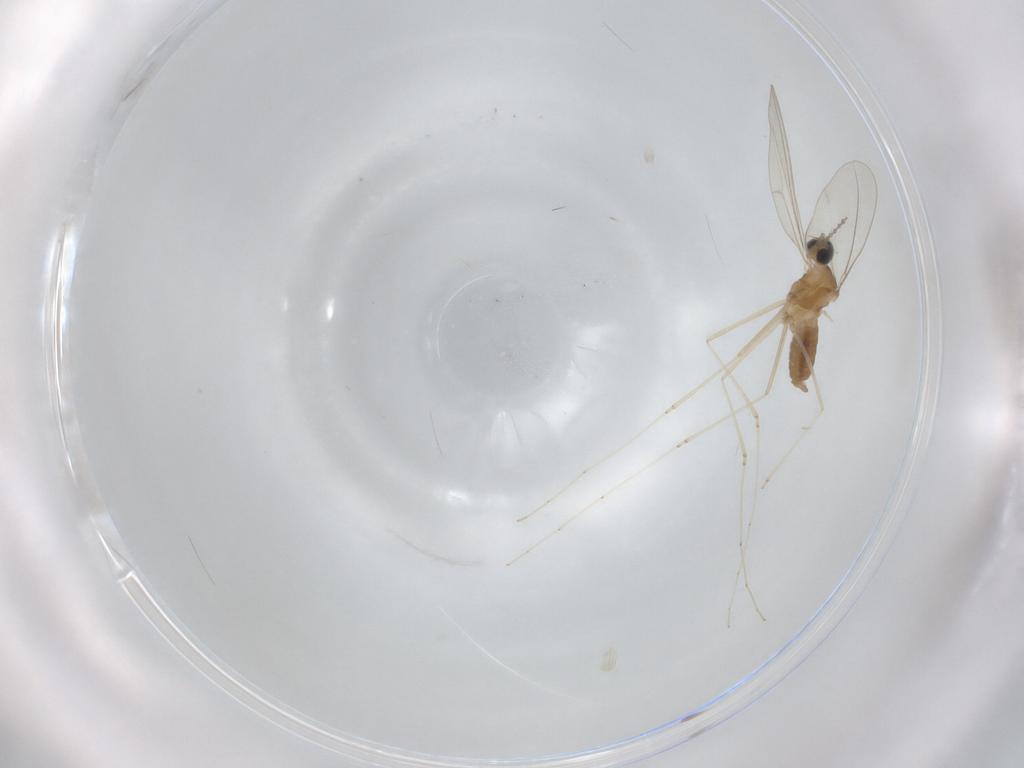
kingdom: Animalia
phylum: Arthropoda
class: Insecta
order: Diptera
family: Cecidomyiidae
